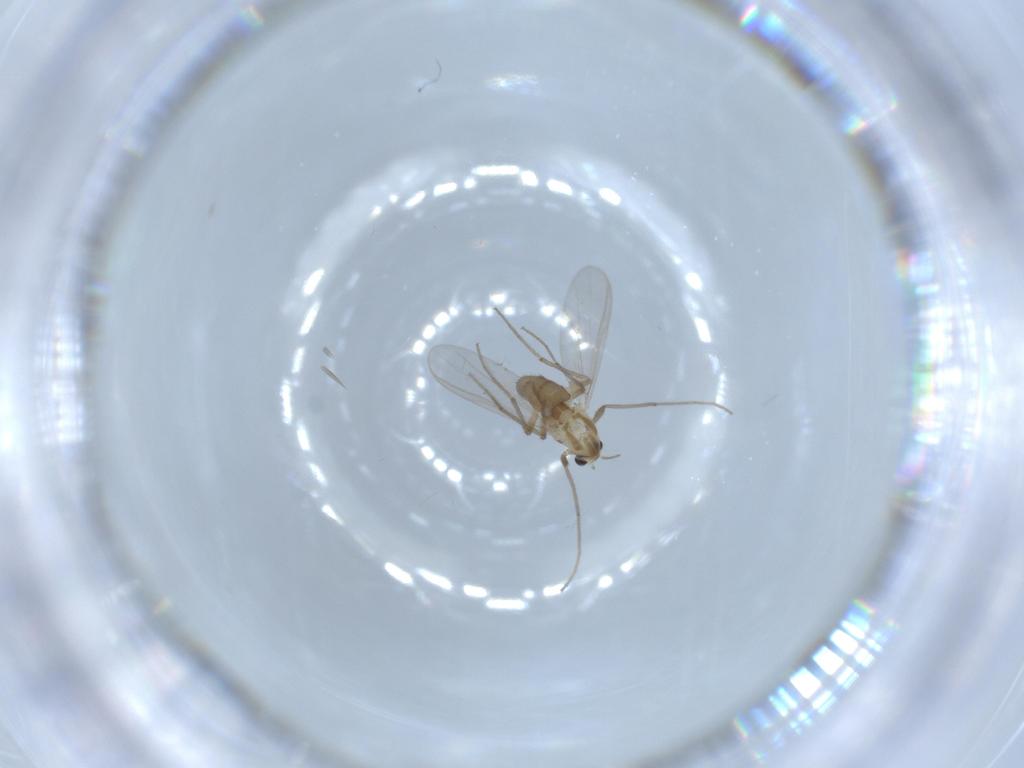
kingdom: Animalia
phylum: Arthropoda
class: Insecta
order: Diptera
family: Chironomidae
